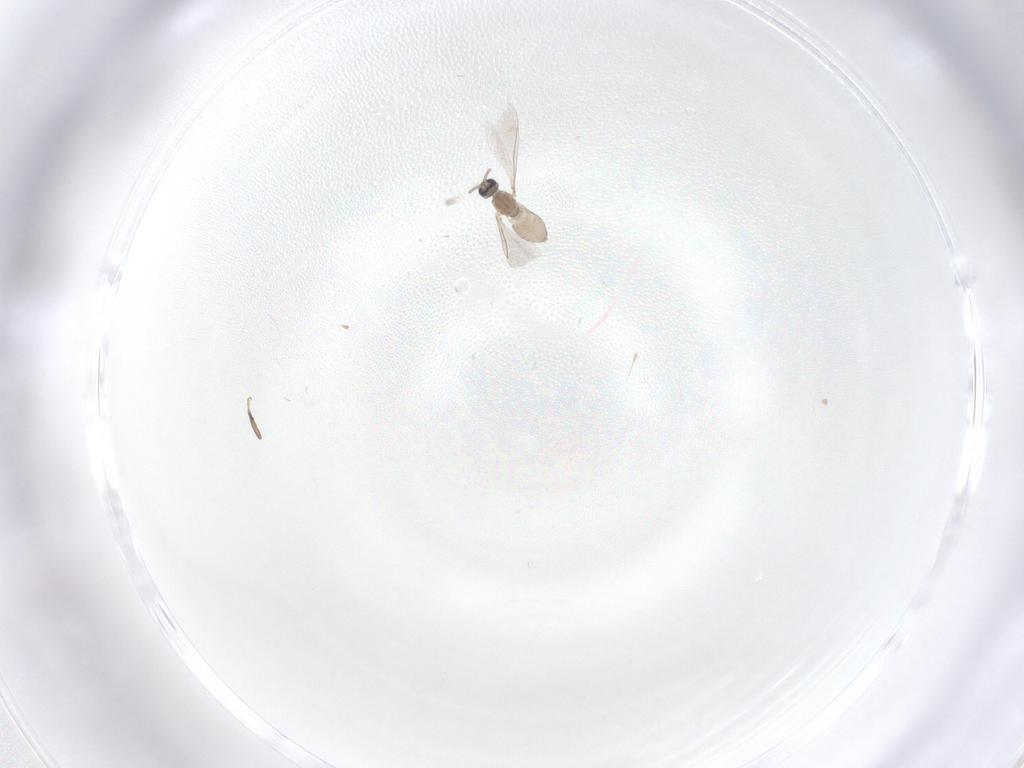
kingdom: Animalia
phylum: Arthropoda
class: Insecta
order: Diptera
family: Cecidomyiidae
